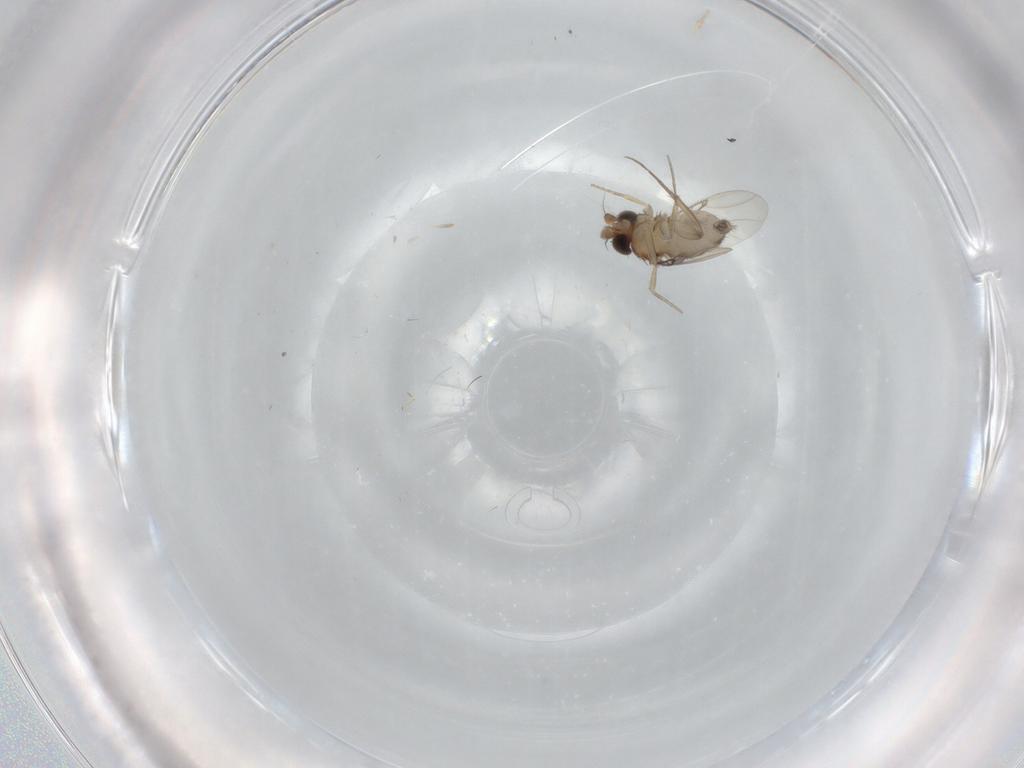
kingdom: Animalia
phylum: Arthropoda
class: Insecta
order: Diptera
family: Phoridae
